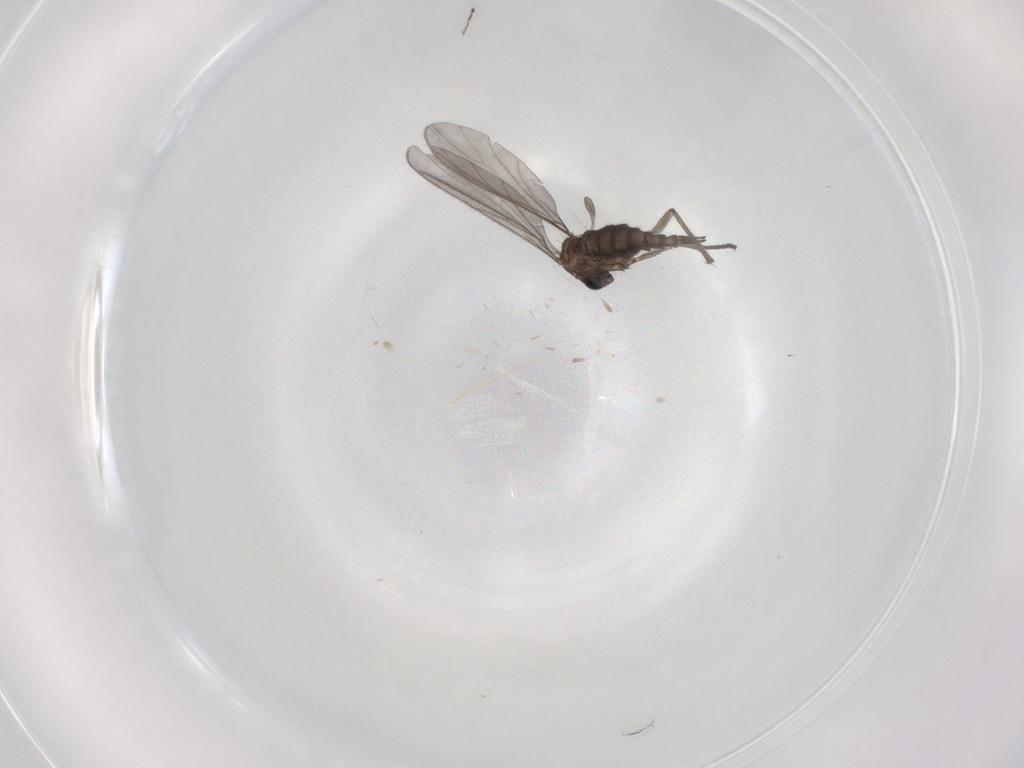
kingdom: Animalia
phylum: Arthropoda
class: Insecta
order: Diptera
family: Sciaridae
